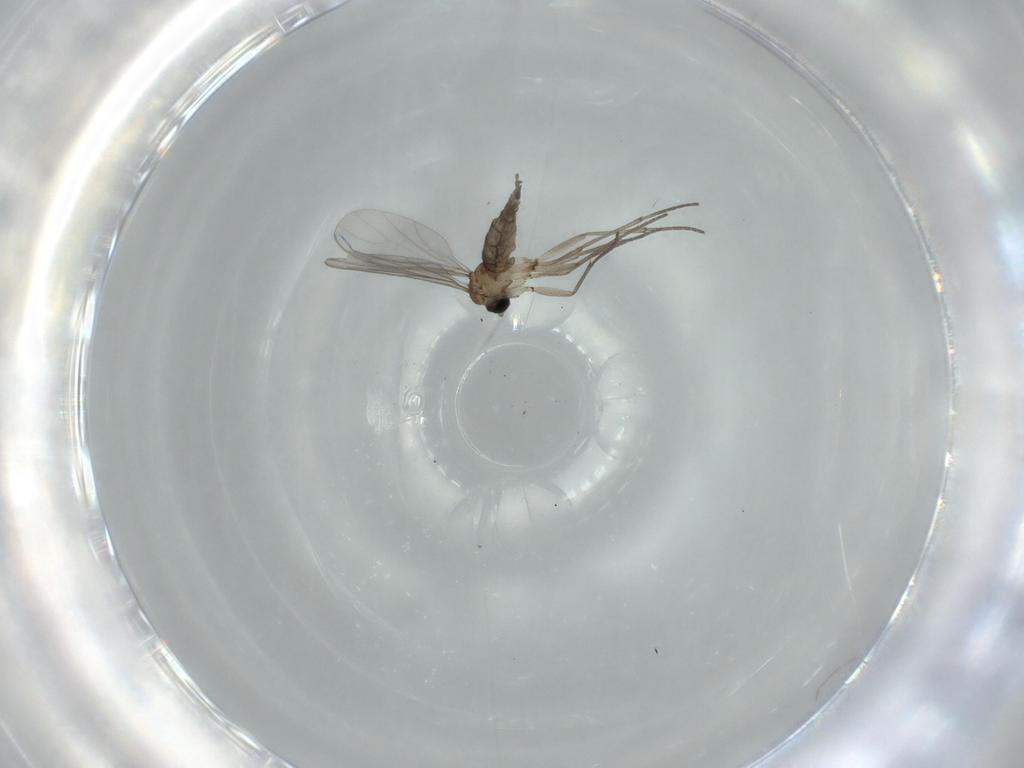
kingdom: Animalia
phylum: Arthropoda
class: Insecta
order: Diptera
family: Sciaridae
